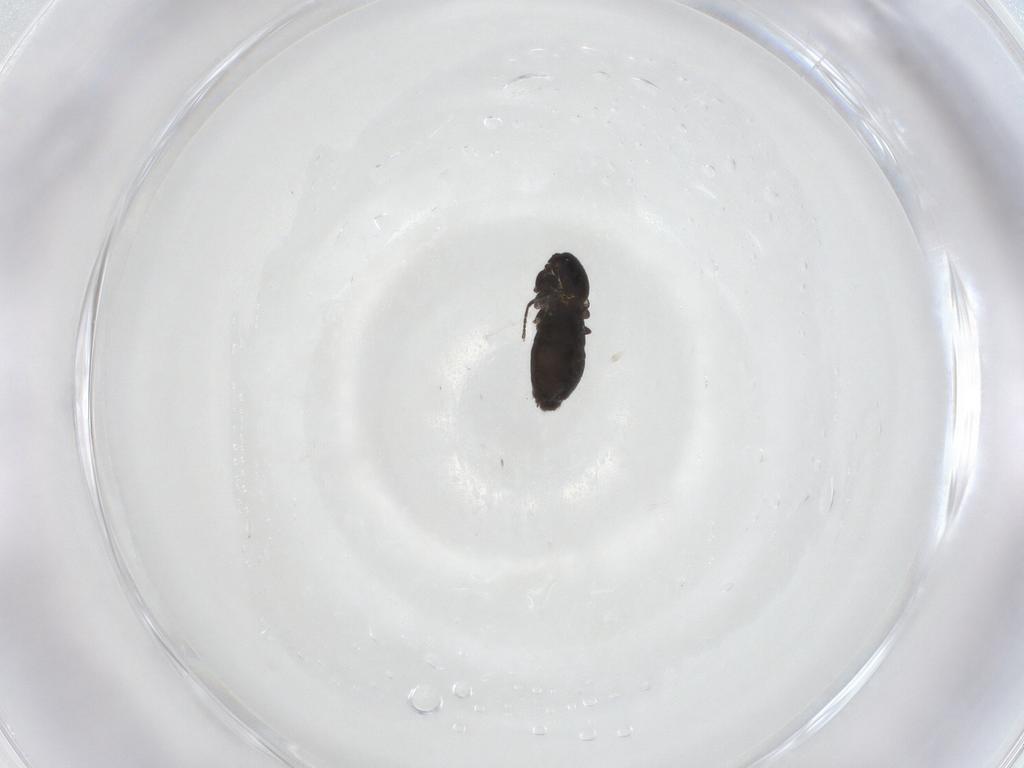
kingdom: Animalia
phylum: Arthropoda
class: Insecta
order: Diptera
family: Scatopsidae
